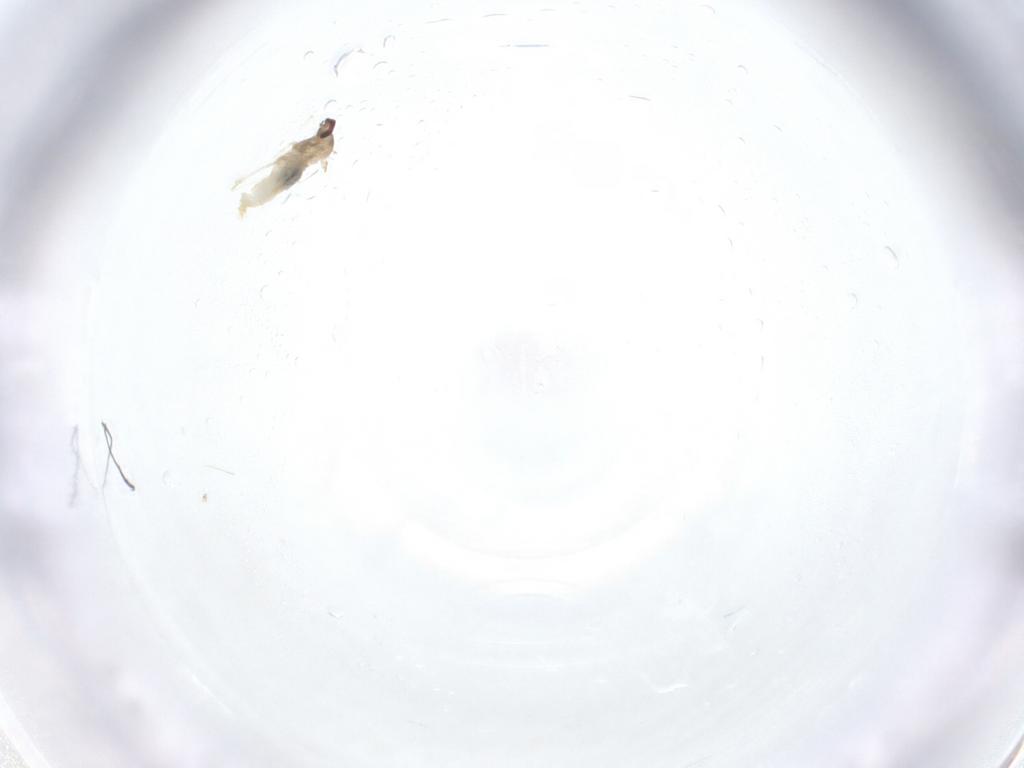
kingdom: Animalia
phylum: Arthropoda
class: Insecta
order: Diptera
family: Cecidomyiidae
